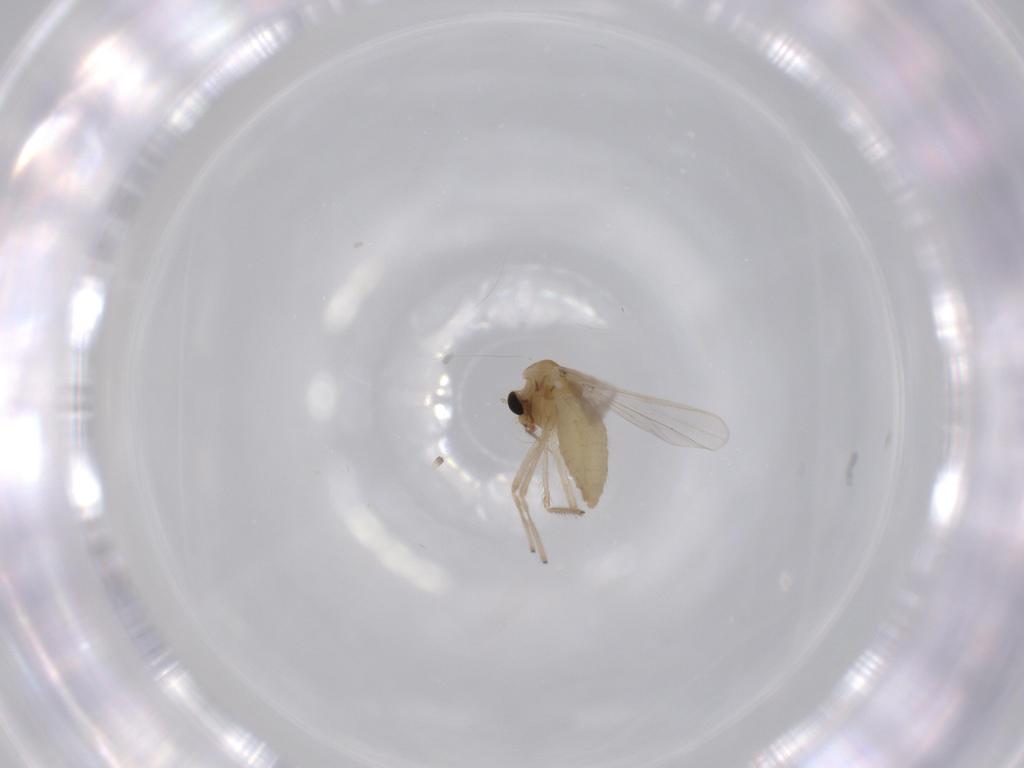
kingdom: Animalia
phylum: Arthropoda
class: Insecta
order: Diptera
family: Chironomidae
